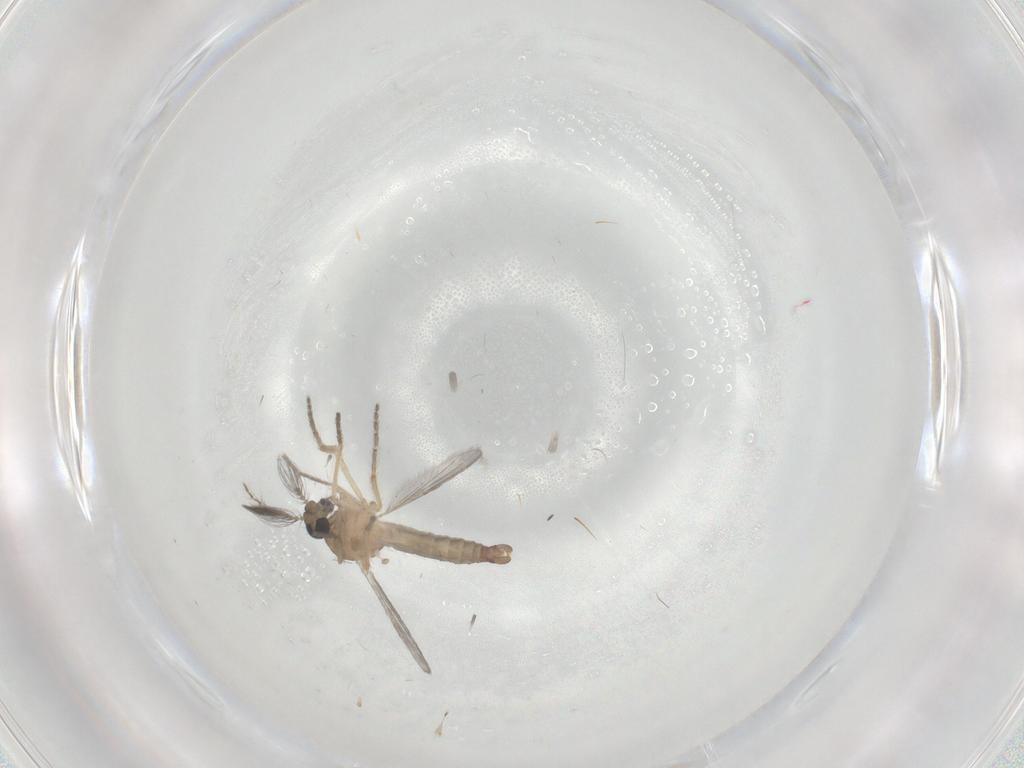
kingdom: Animalia
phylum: Arthropoda
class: Insecta
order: Diptera
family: Ceratopogonidae
